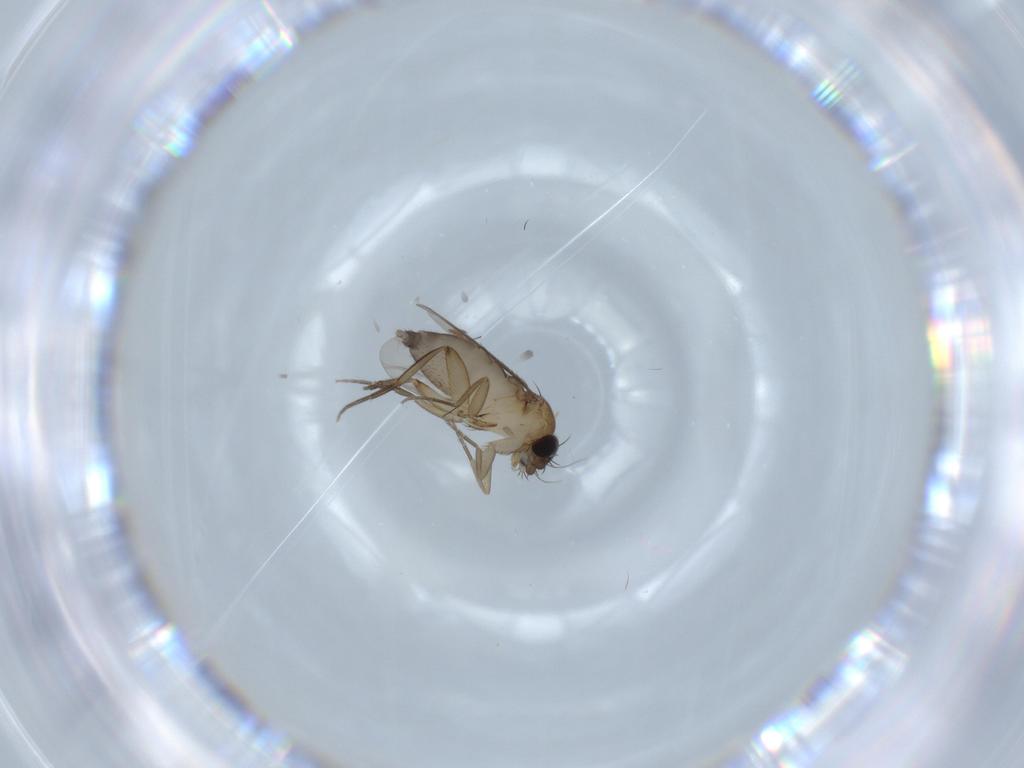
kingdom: Animalia
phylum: Arthropoda
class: Insecta
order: Diptera
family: Phoridae
